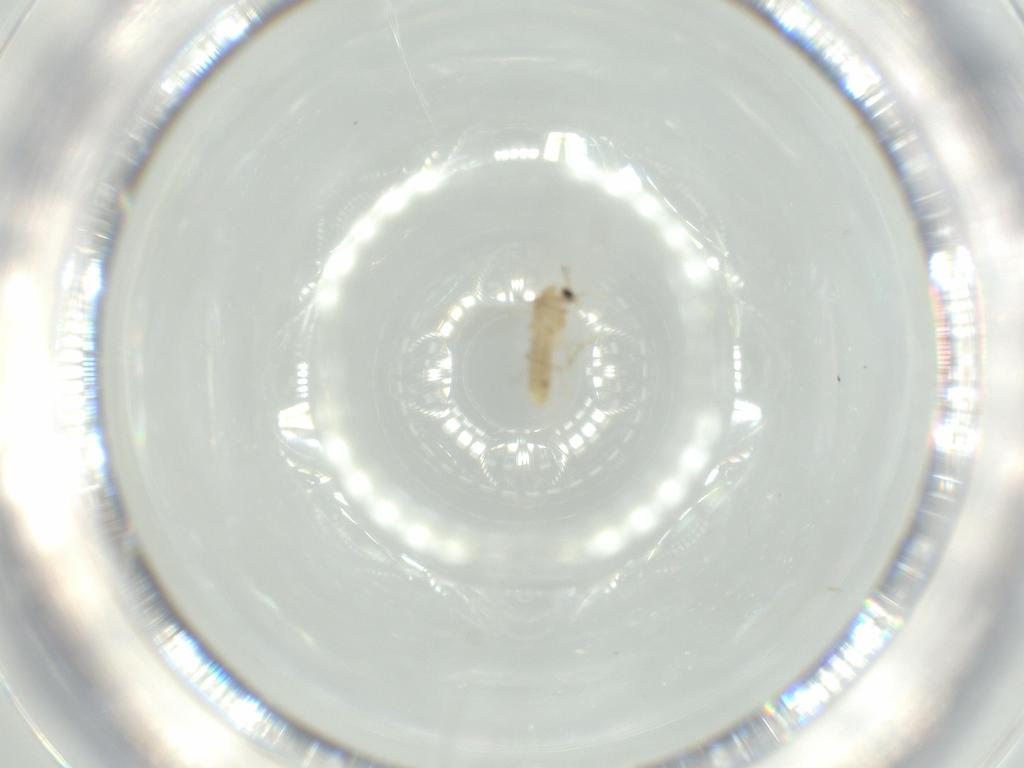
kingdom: Animalia
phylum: Arthropoda
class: Insecta
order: Diptera
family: Chironomidae
